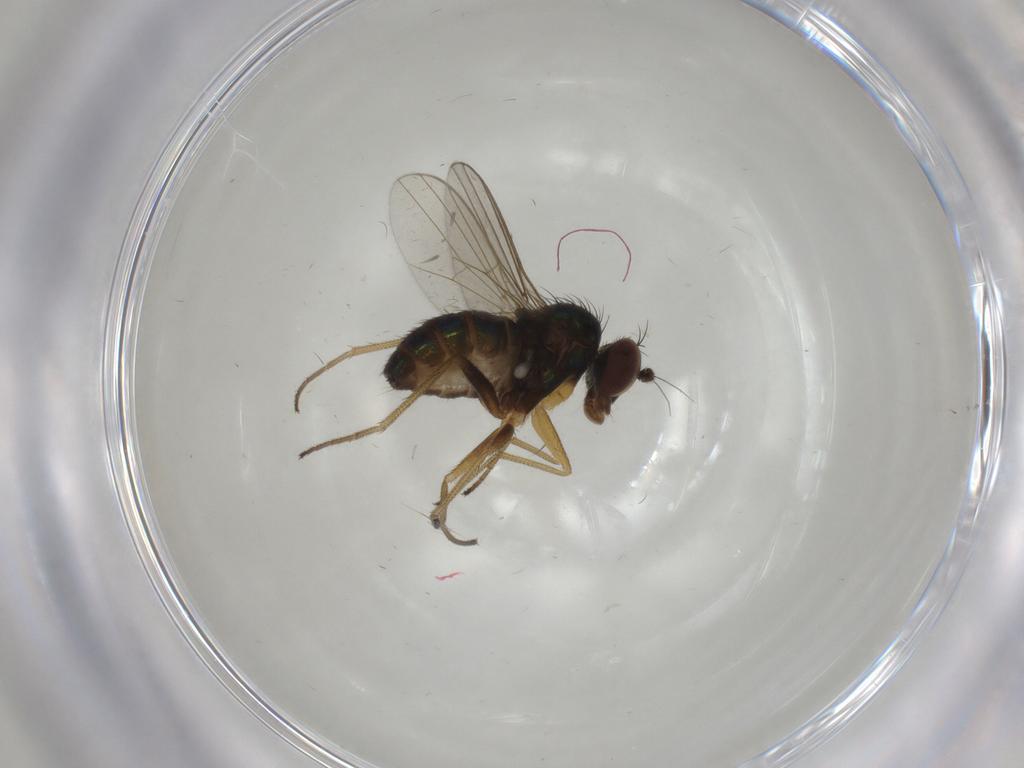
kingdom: Animalia
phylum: Arthropoda
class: Insecta
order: Diptera
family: Dolichopodidae
